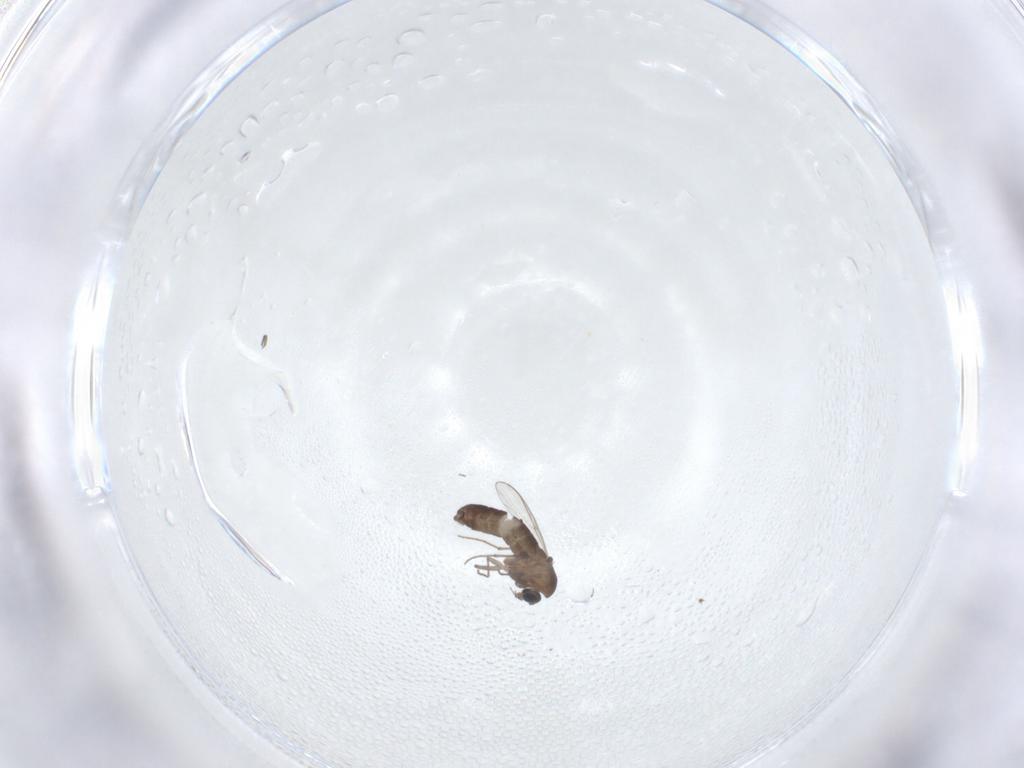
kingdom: Animalia
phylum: Arthropoda
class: Insecta
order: Diptera
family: Chironomidae
